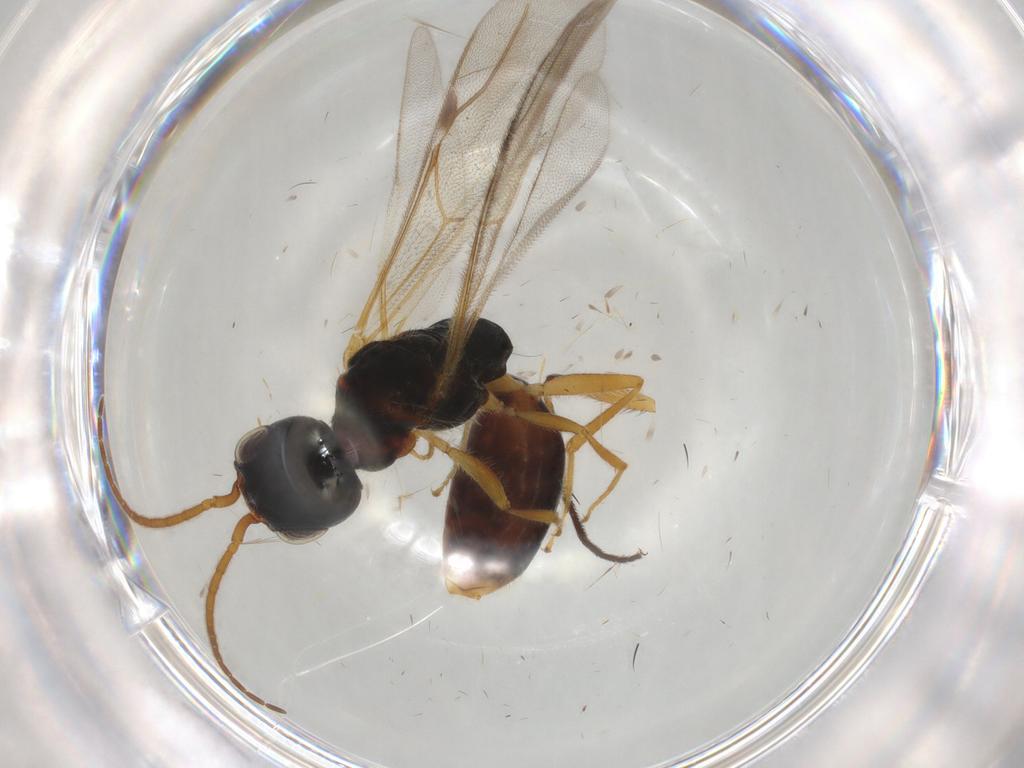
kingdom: Animalia
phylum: Arthropoda
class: Insecta
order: Hymenoptera
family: Bethylidae
